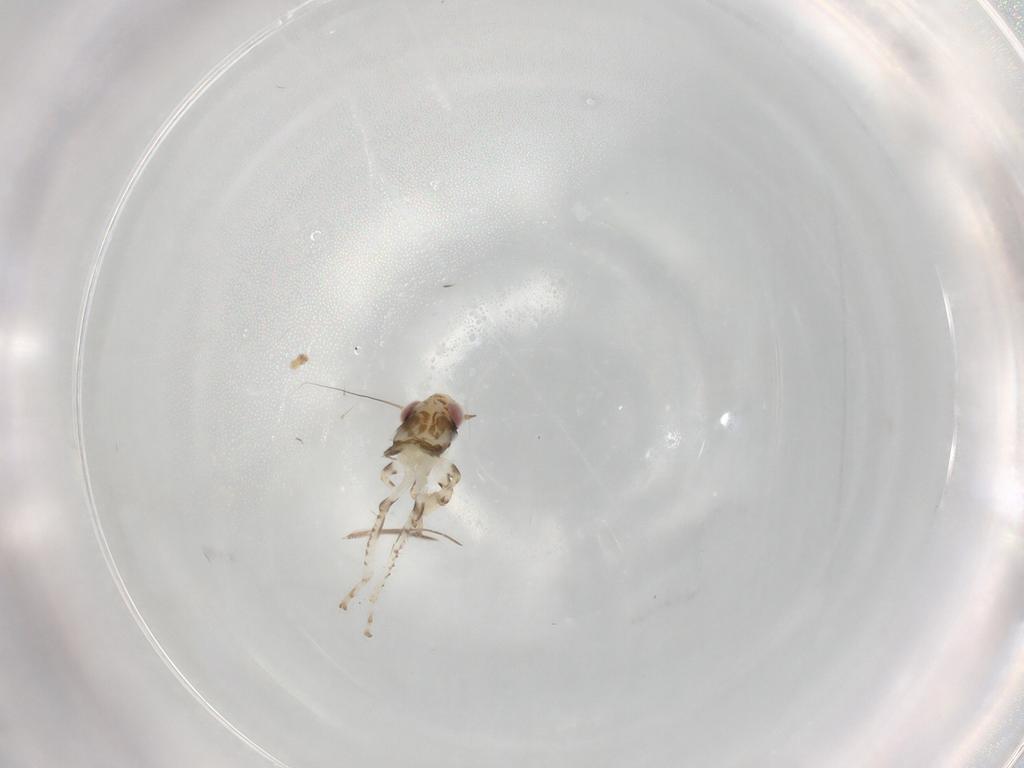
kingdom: Animalia
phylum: Arthropoda
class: Insecta
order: Hemiptera
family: Cicadellidae
